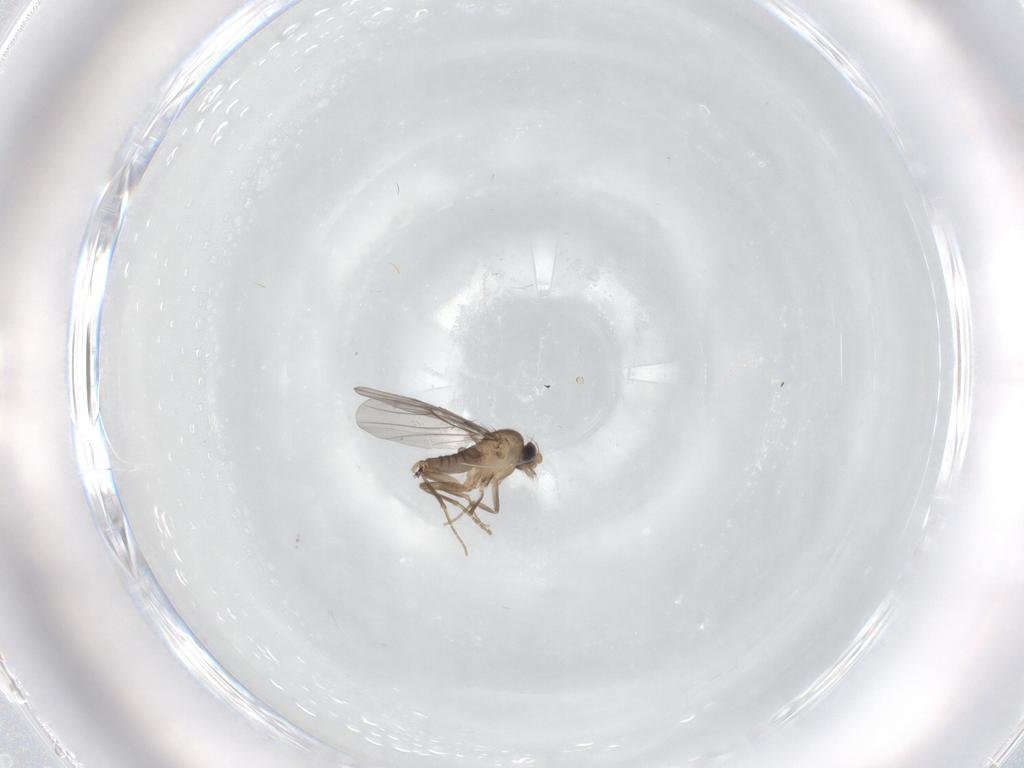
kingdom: Animalia
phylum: Arthropoda
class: Insecta
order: Diptera
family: Cecidomyiidae
